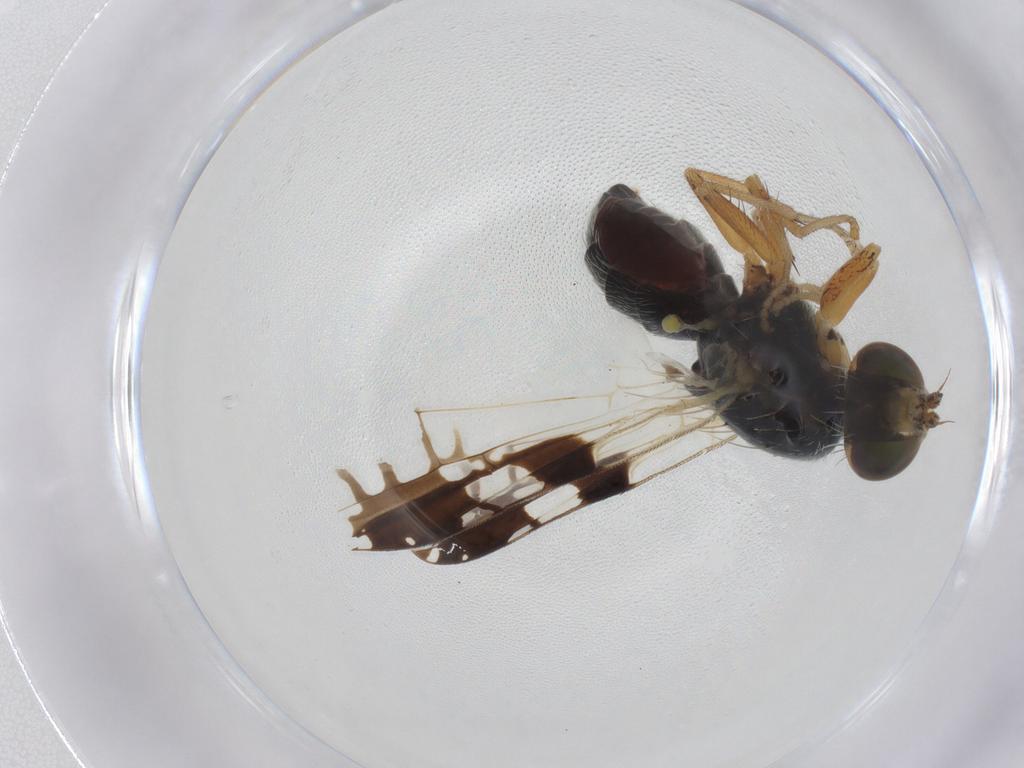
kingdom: Animalia
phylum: Arthropoda
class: Insecta
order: Diptera
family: Tephritidae
